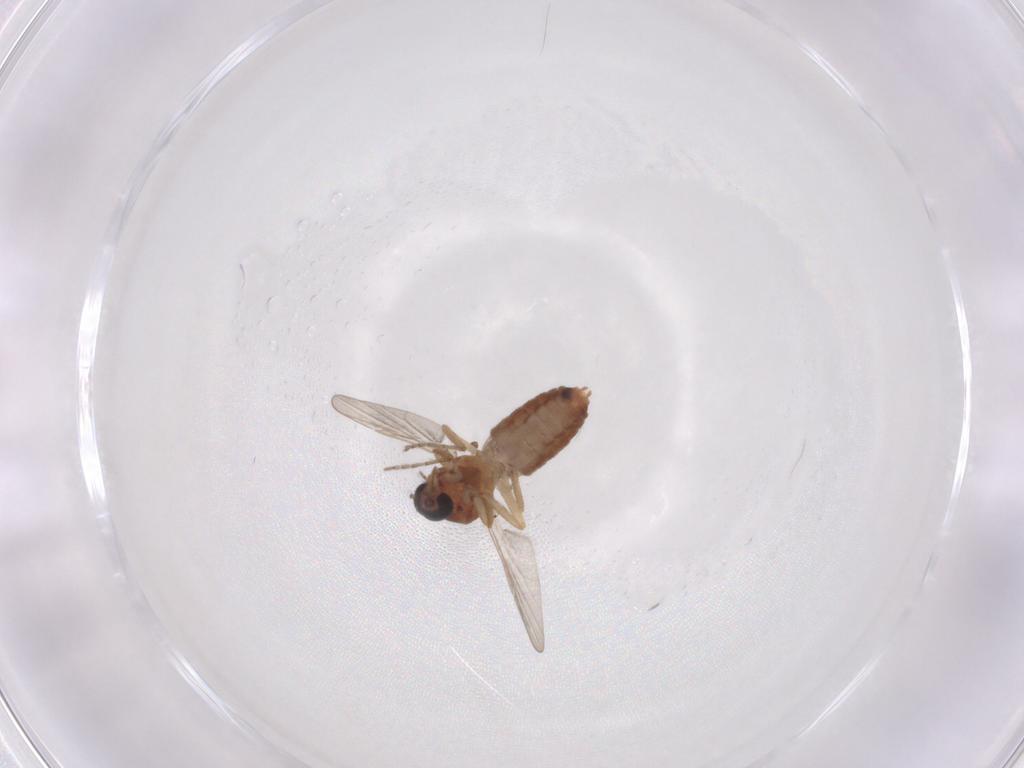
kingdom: Animalia
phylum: Arthropoda
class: Insecta
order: Diptera
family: Ceratopogonidae
